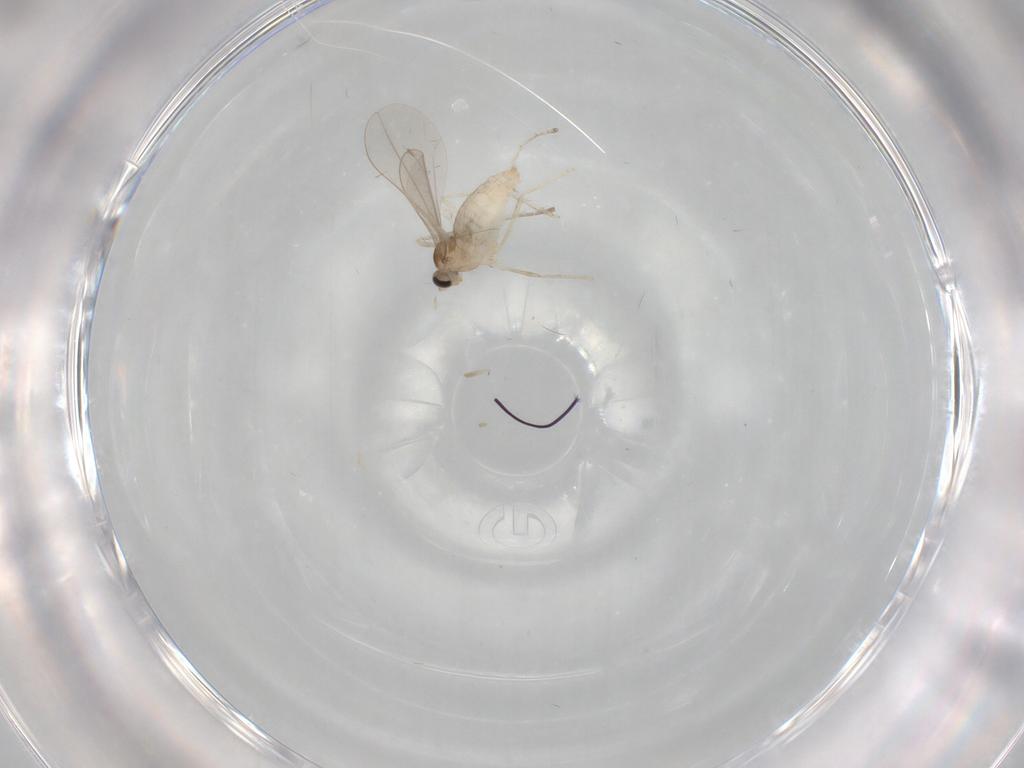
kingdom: Animalia
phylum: Arthropoda
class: Insecta
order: Diptera
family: Cecidomyiidae
